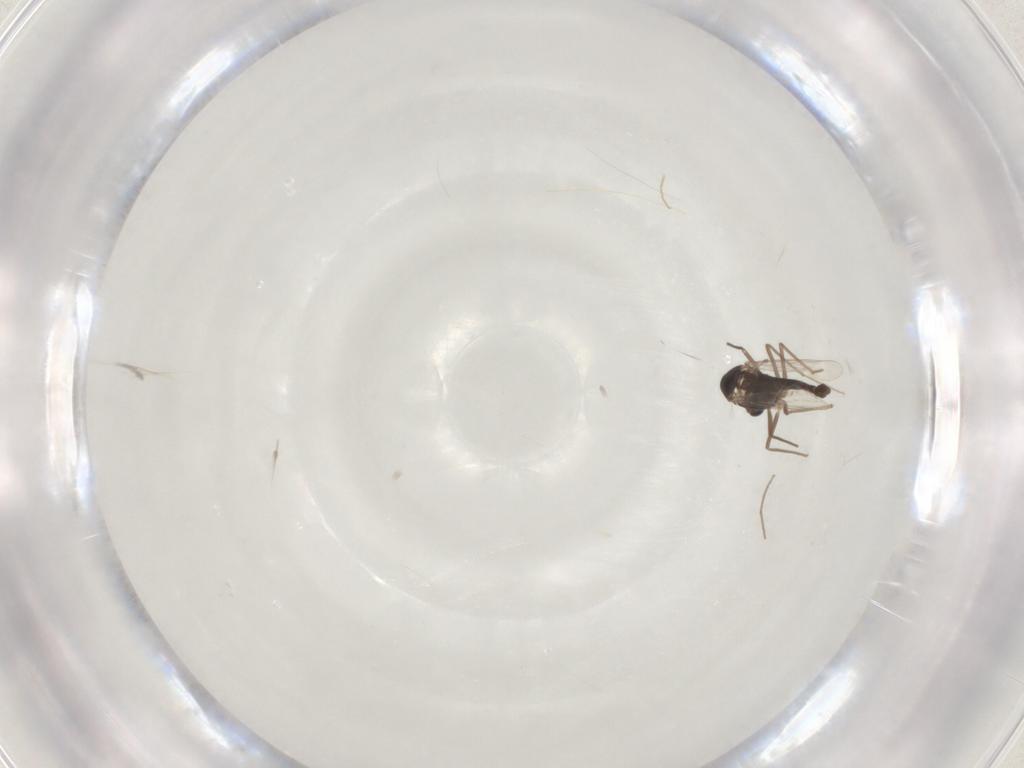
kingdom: Animalia
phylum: Arthropoda
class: Insecta
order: Diptera
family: Chironomidae
